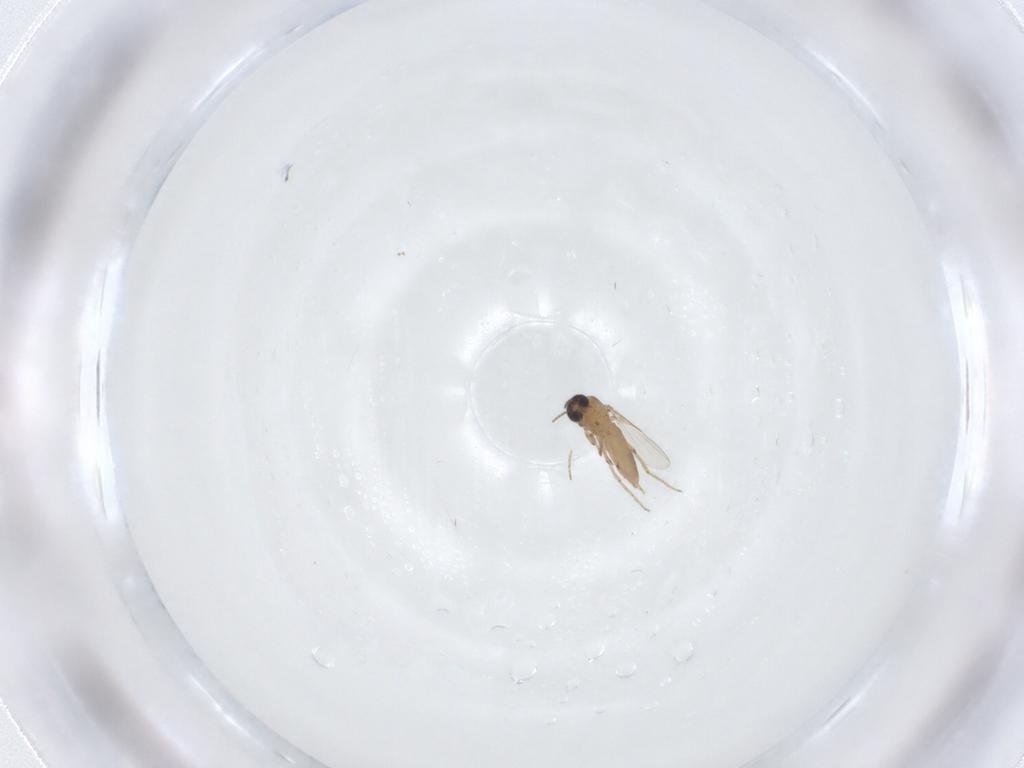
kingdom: Animalia
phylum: Arthropoda
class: Insecta
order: Diptera
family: Ceratopogonidae
